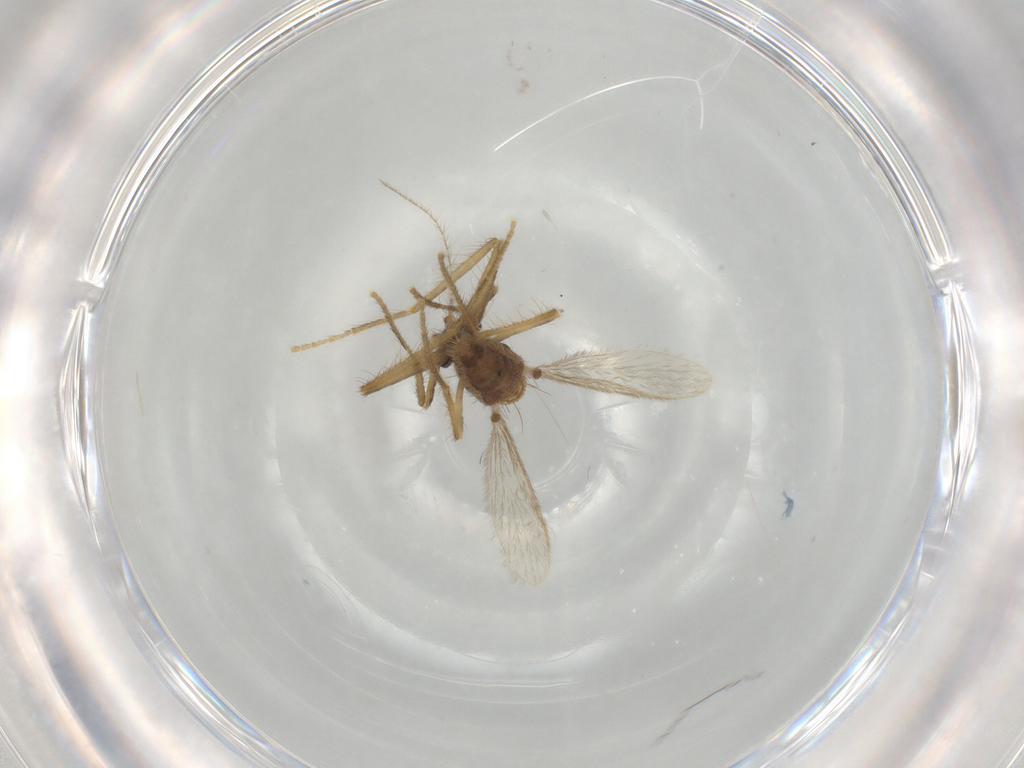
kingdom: Animalia
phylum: Arthropoda
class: Insecta
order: Diptera
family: Corethrellidae
